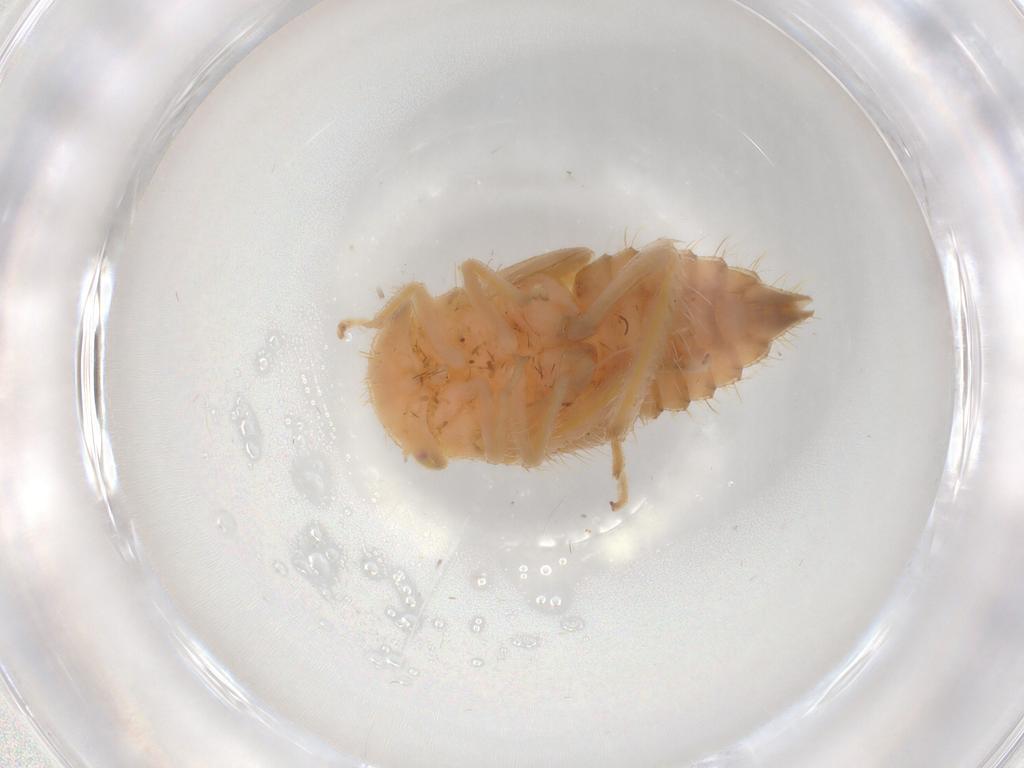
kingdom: Animalia
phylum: Arthropoda
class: Insecta
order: Hemiptera
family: Cicadellidae
